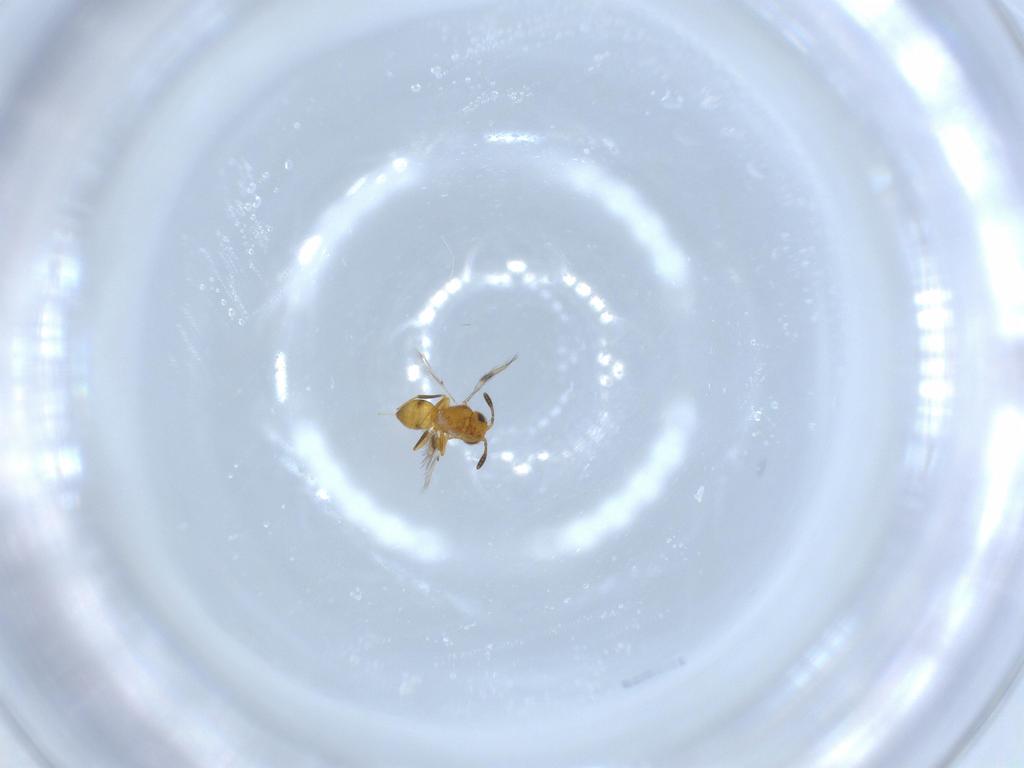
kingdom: Animalia
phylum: Arthropoda
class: Insecta
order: Hymenoptera
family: Scelionidae
